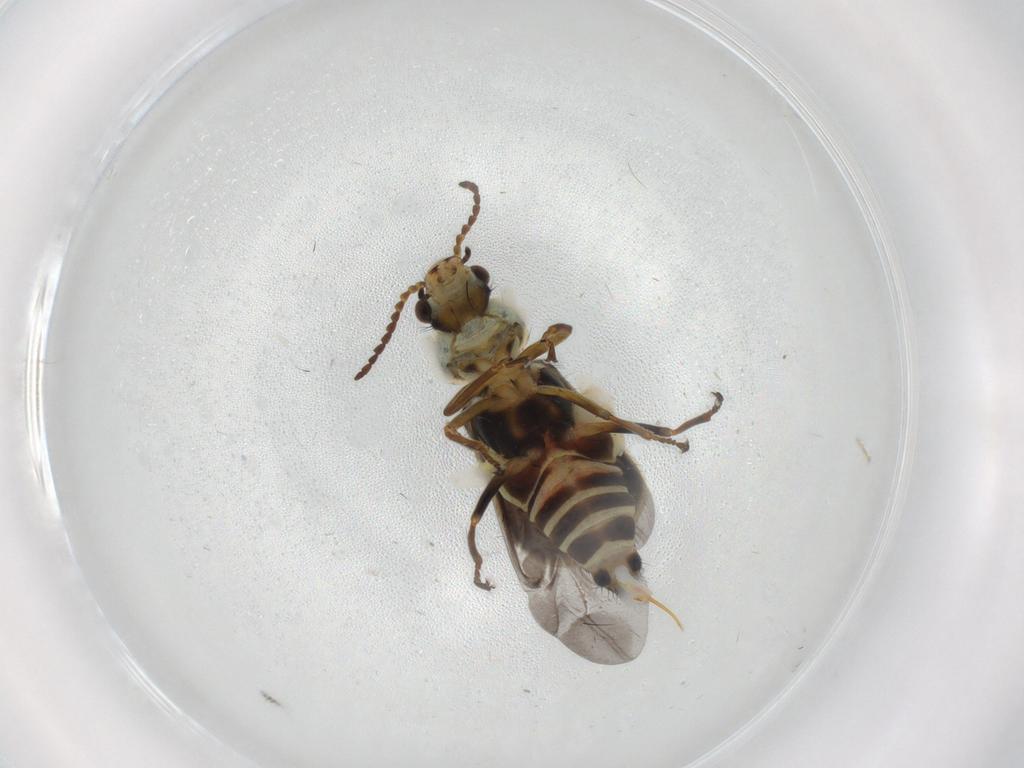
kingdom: Animalia
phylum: Arthropoda
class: Insecta
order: Coleoptera
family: Melyridae
